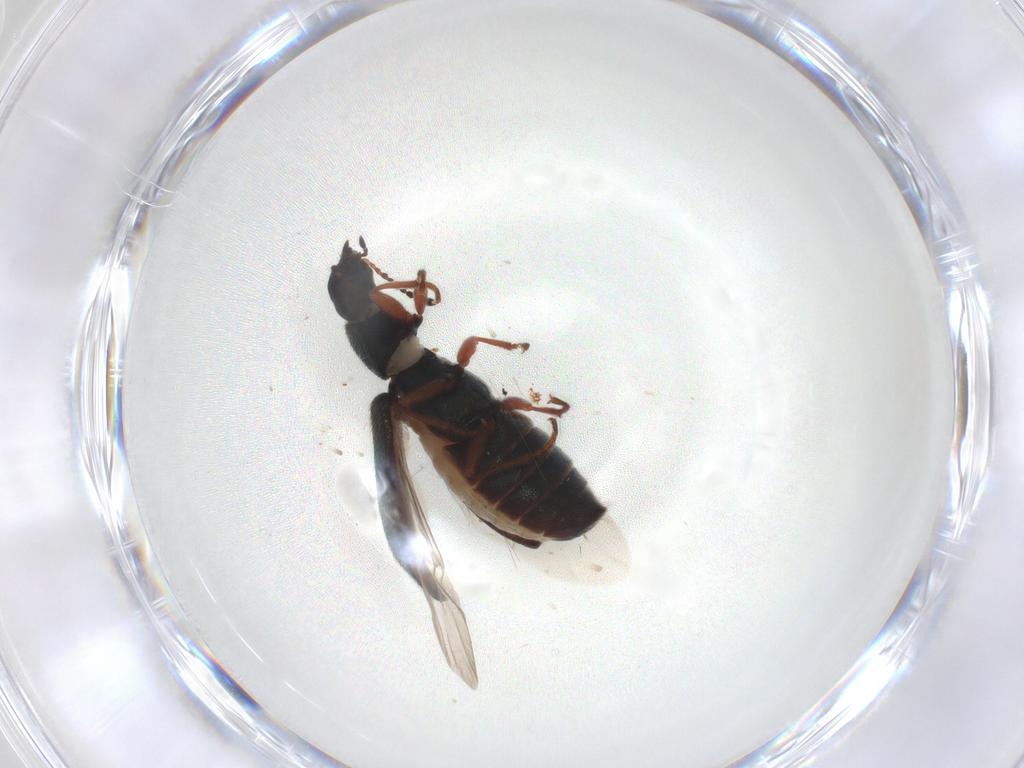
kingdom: Animalia
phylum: Arthropoda
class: Insecta
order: Coleoptera
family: Melyridae
